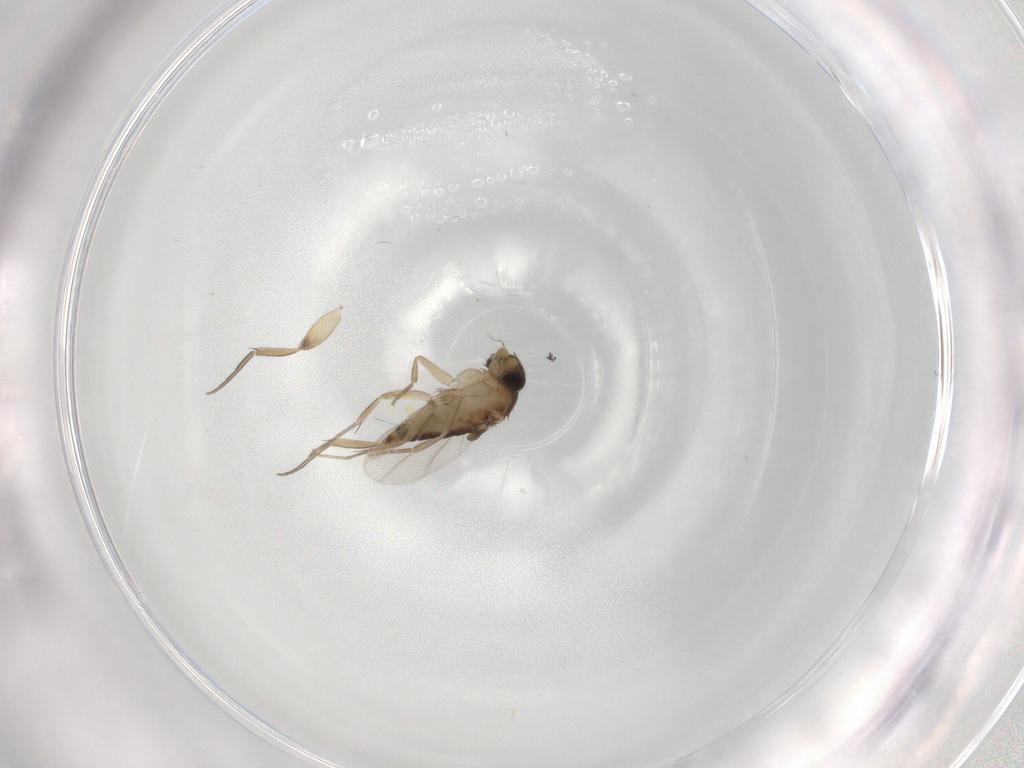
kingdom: Animalia
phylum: Arthropoda
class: Insecta
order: Diptera
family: Phoridae
